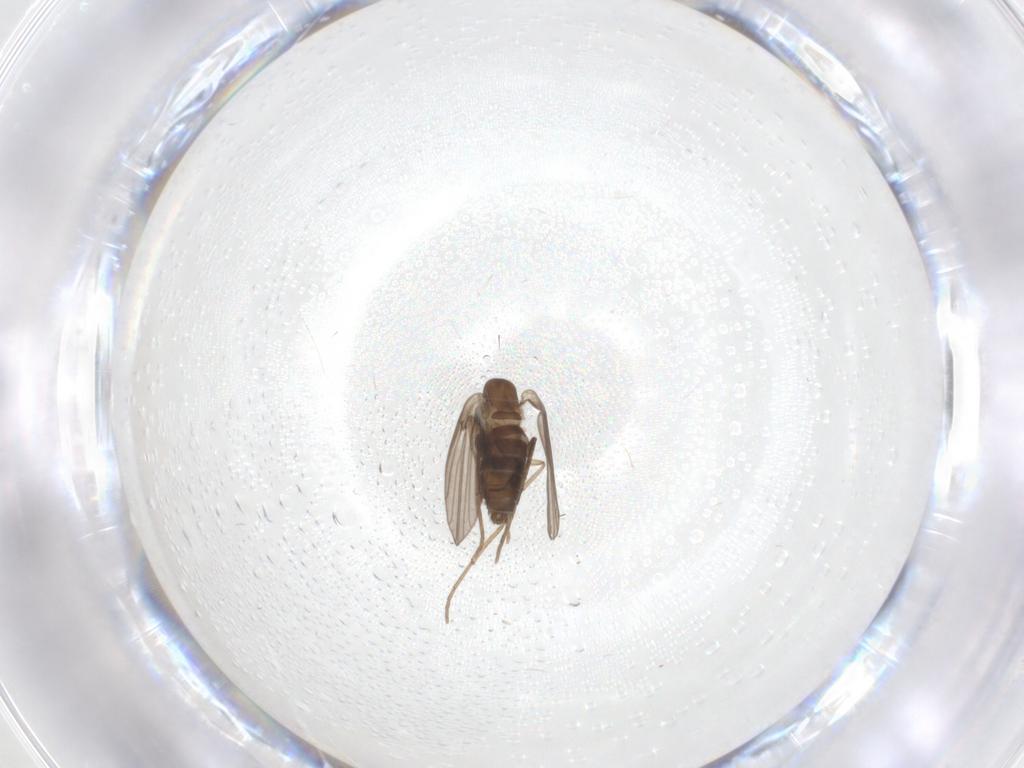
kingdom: Animalia
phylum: Arthropoda
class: Insecta
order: Diptera
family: Psychodidae
